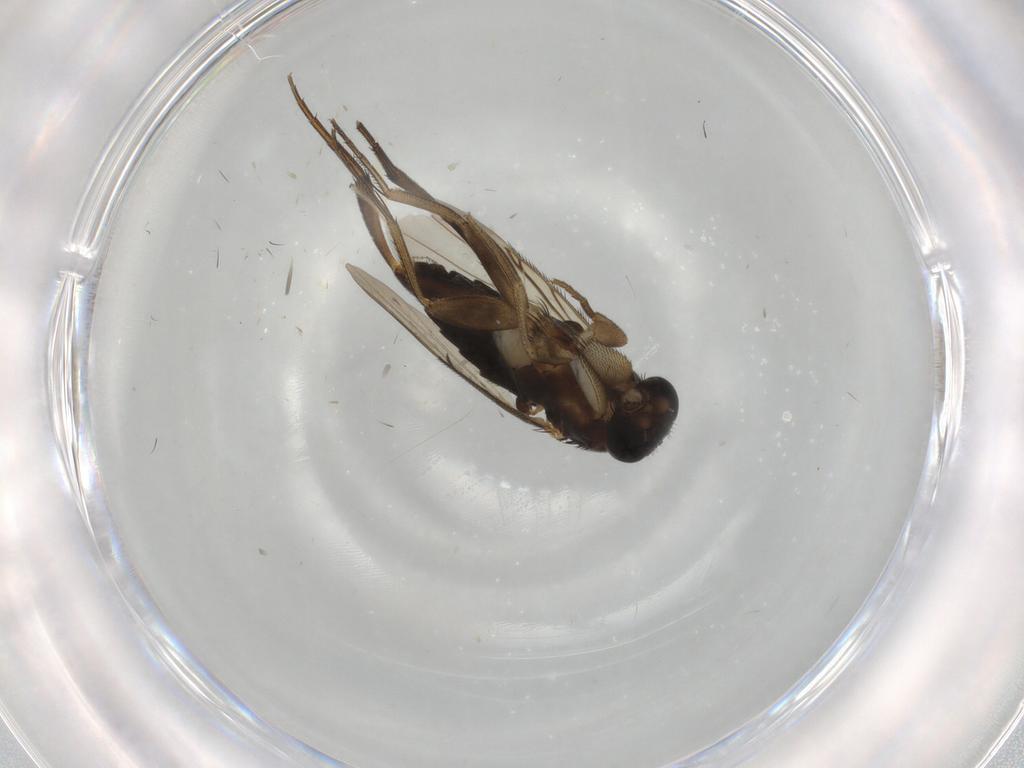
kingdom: Animalia
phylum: Arthropoda
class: Insecta
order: Diptera
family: Phoridae
